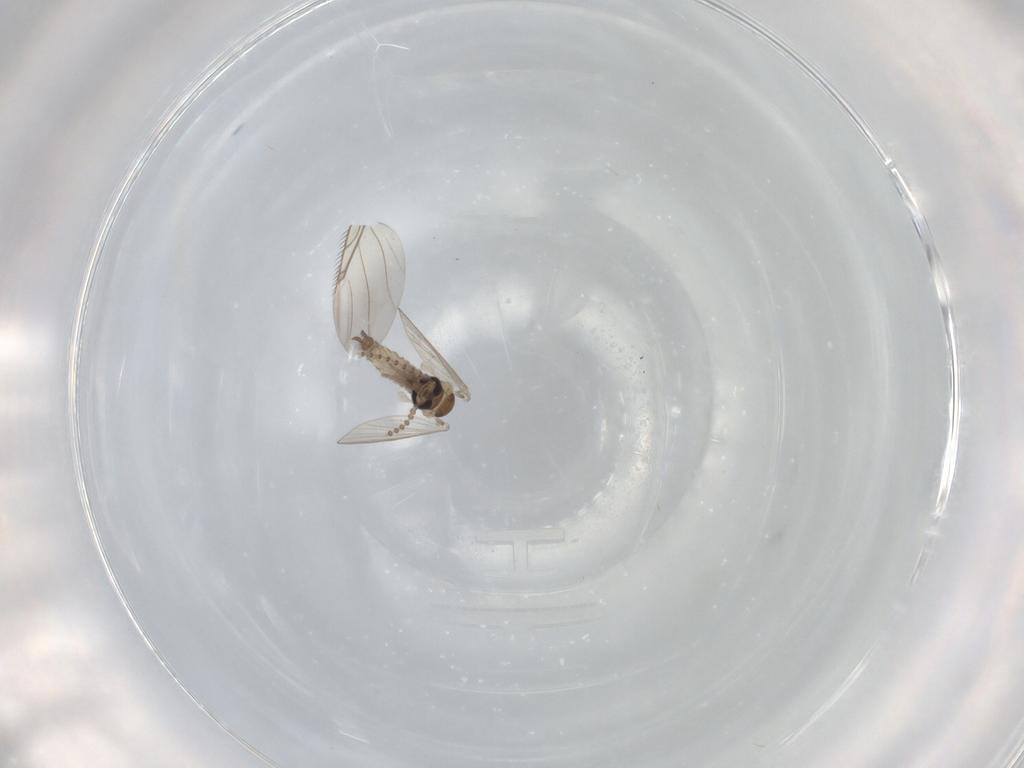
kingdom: Animalia
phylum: Arthropoda
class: Insecta
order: Diptera
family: Psychodidae
